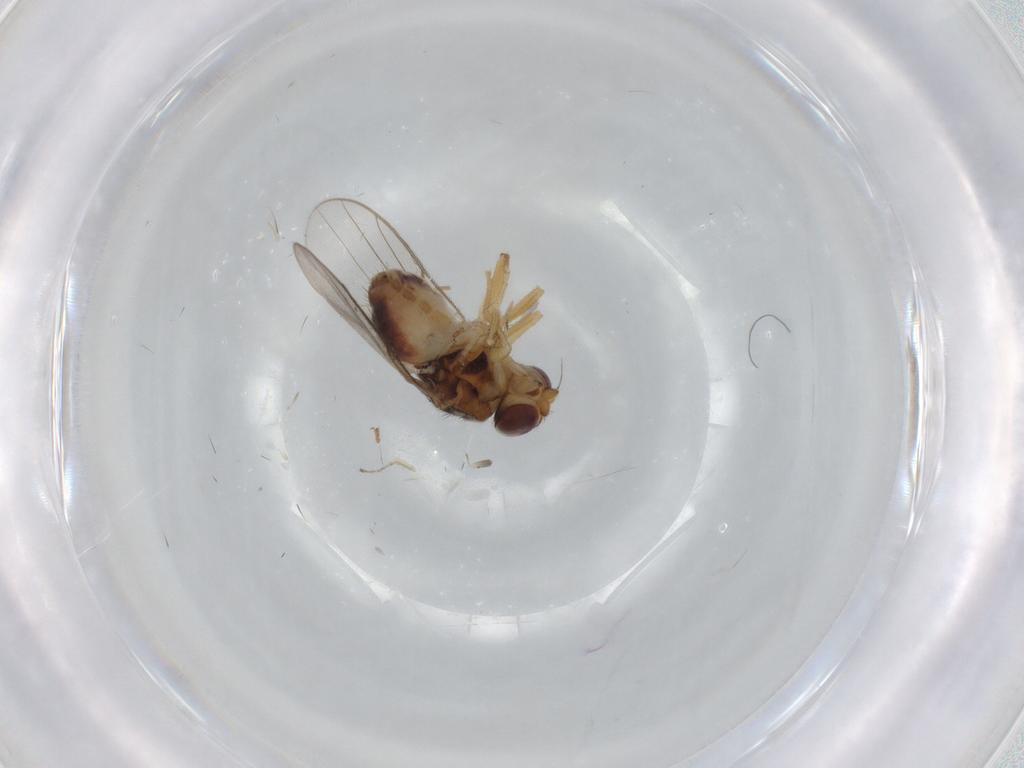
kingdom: Animalia
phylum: Arthropoda
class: Insecta
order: Diptera
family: Chloropidae
